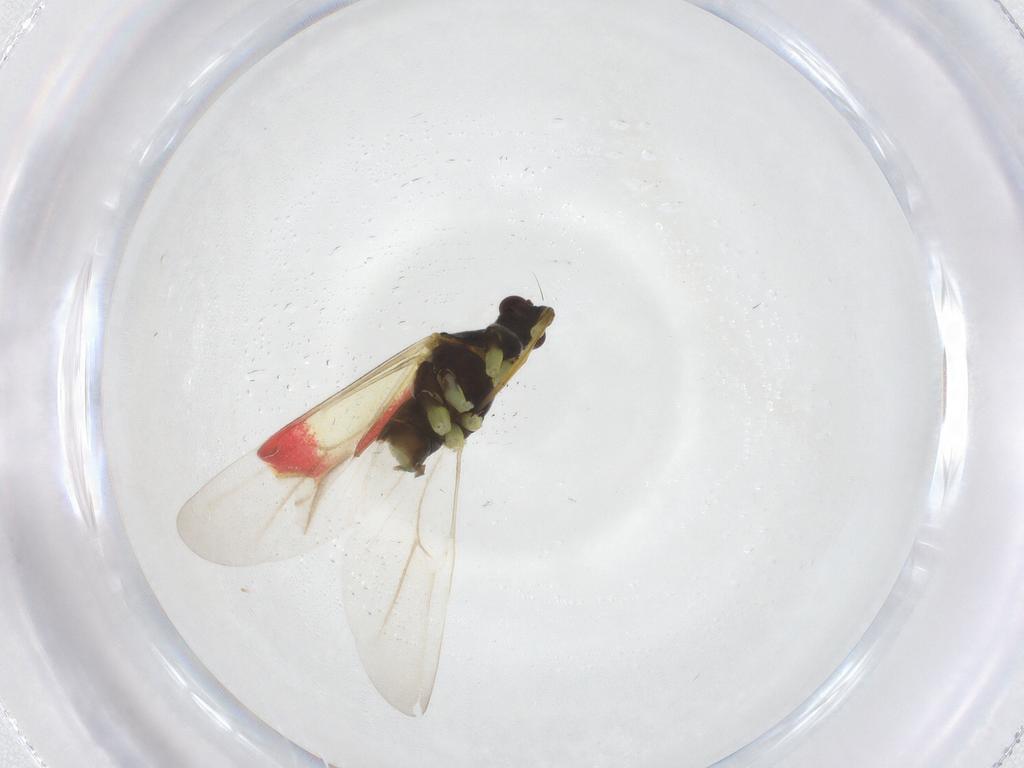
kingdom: Animalia
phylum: Arthropoda
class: Insecta
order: Hemiptera
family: Miridae
